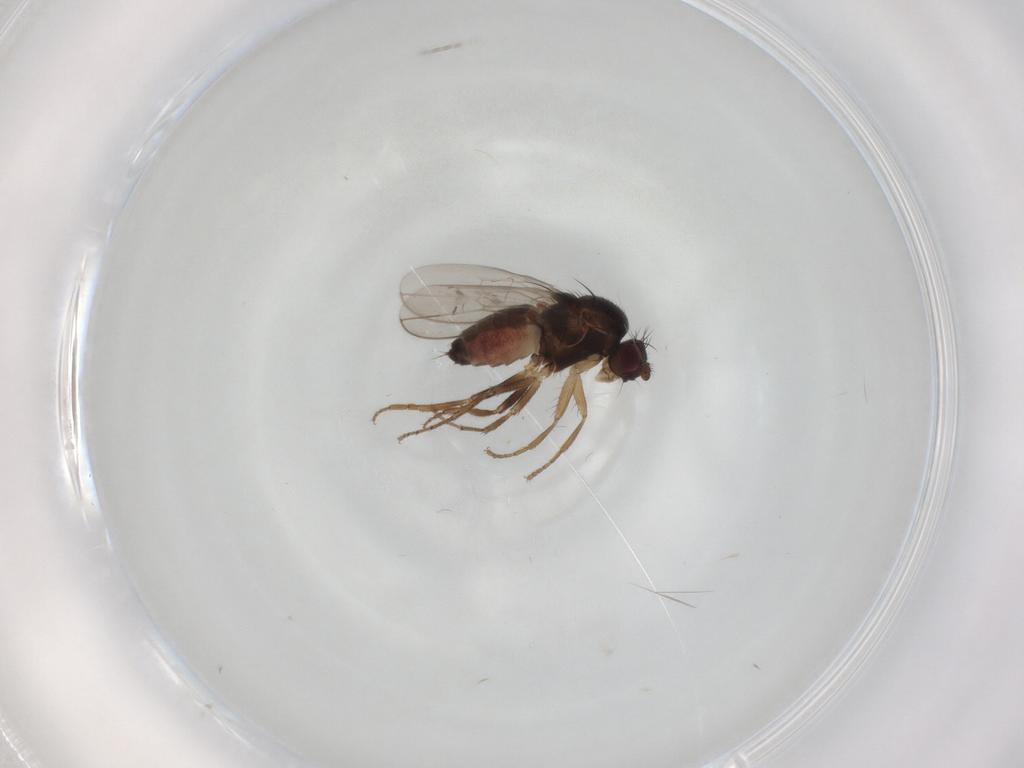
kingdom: Animalia
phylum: Arthropoda
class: Insecta
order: Diptera
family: Sphaeroceridae
